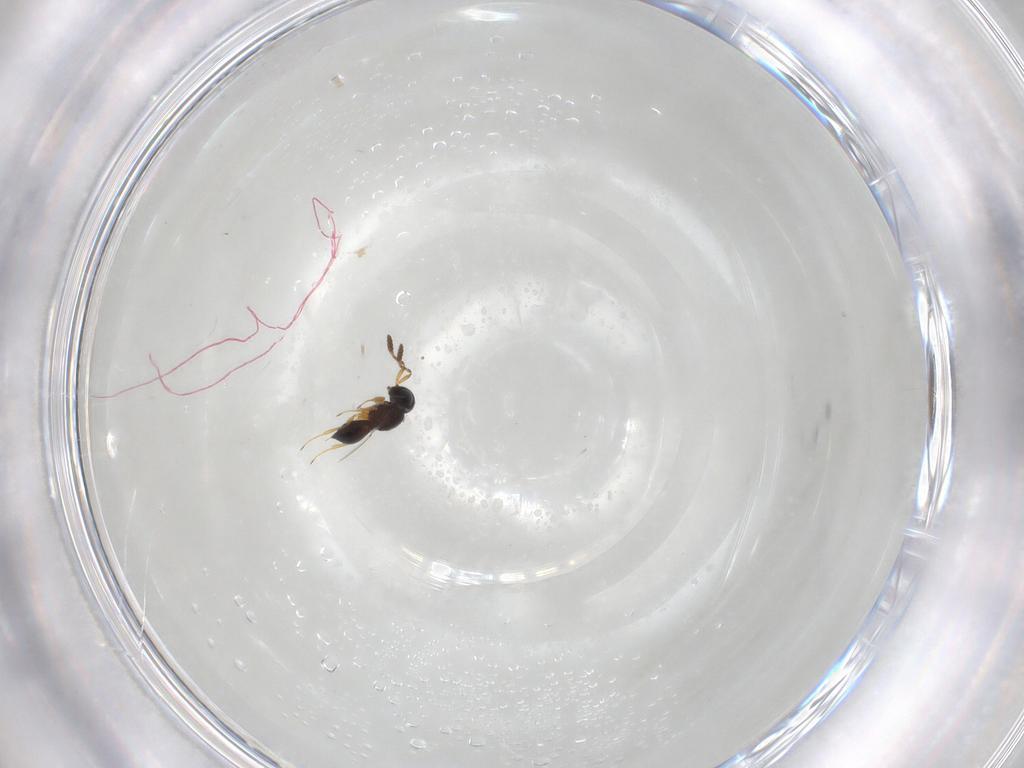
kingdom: Animalia
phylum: Arthropoda
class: Insecta
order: Hymenoptera
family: Scelionidae
